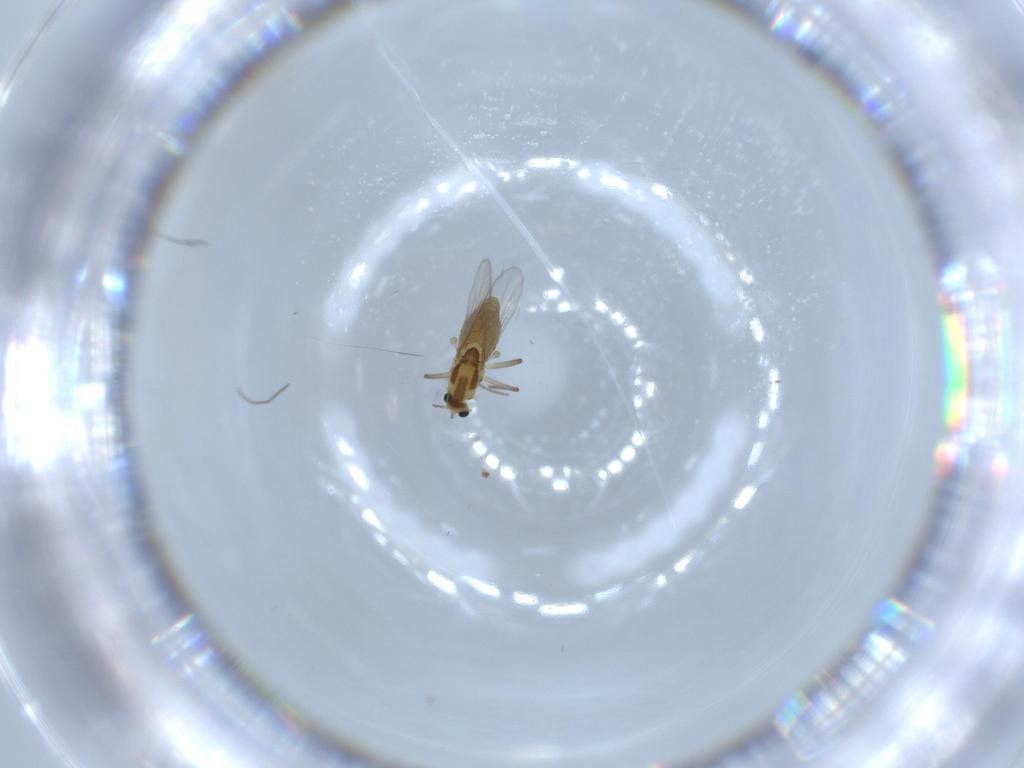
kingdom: Animalia
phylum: Arthropoda
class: Insecta
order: Diptera
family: Chironomidae
